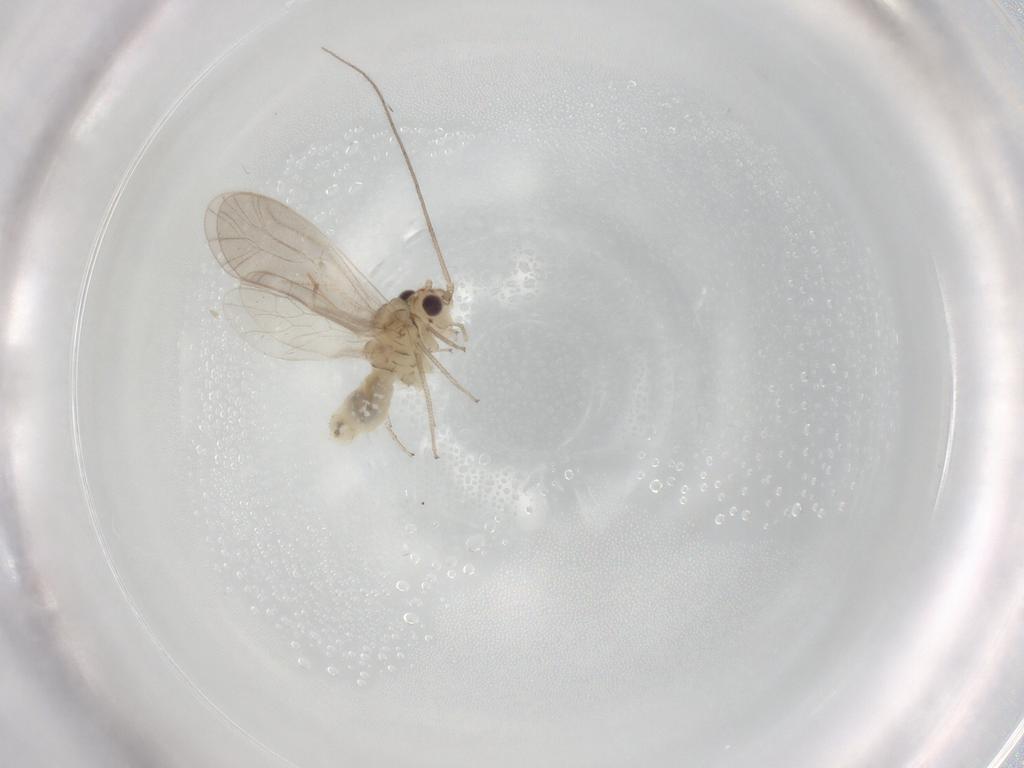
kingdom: Animalia
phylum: Arthropoda
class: Insecta
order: Psocodea
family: Caeciliusidae
